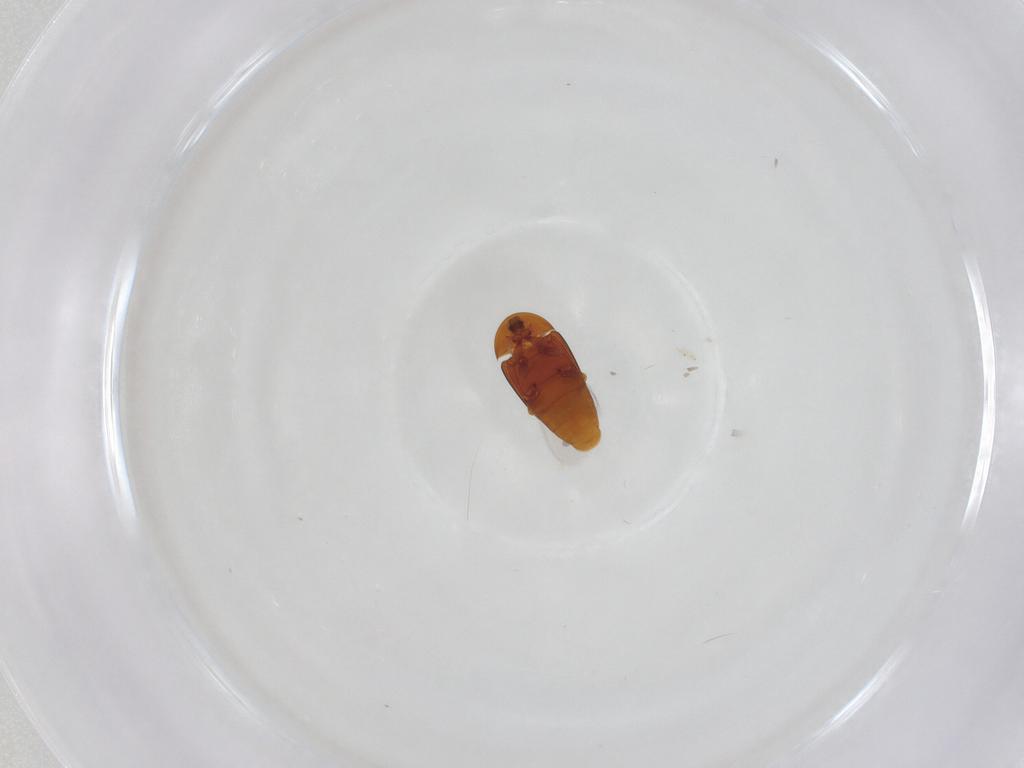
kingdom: Animalia
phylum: Arthropoda
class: Insecta
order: Coleoptera
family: Corylophidae
